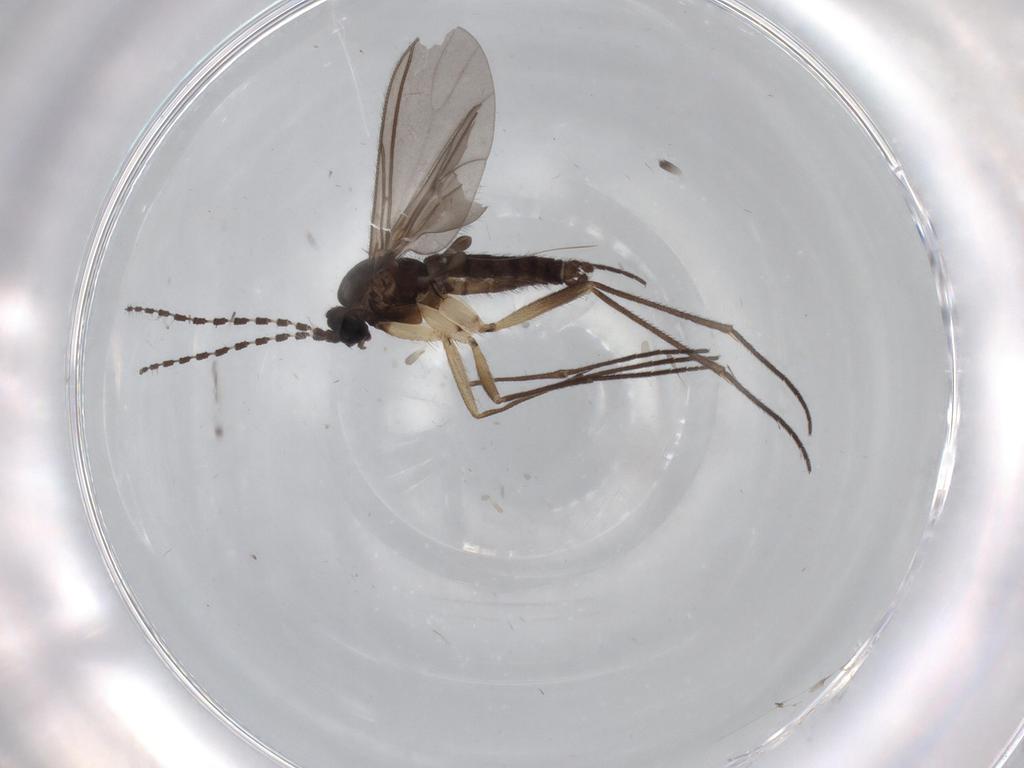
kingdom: Animalia
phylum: Arthropoda
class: Insecta
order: Diptera
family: Sciaridae
